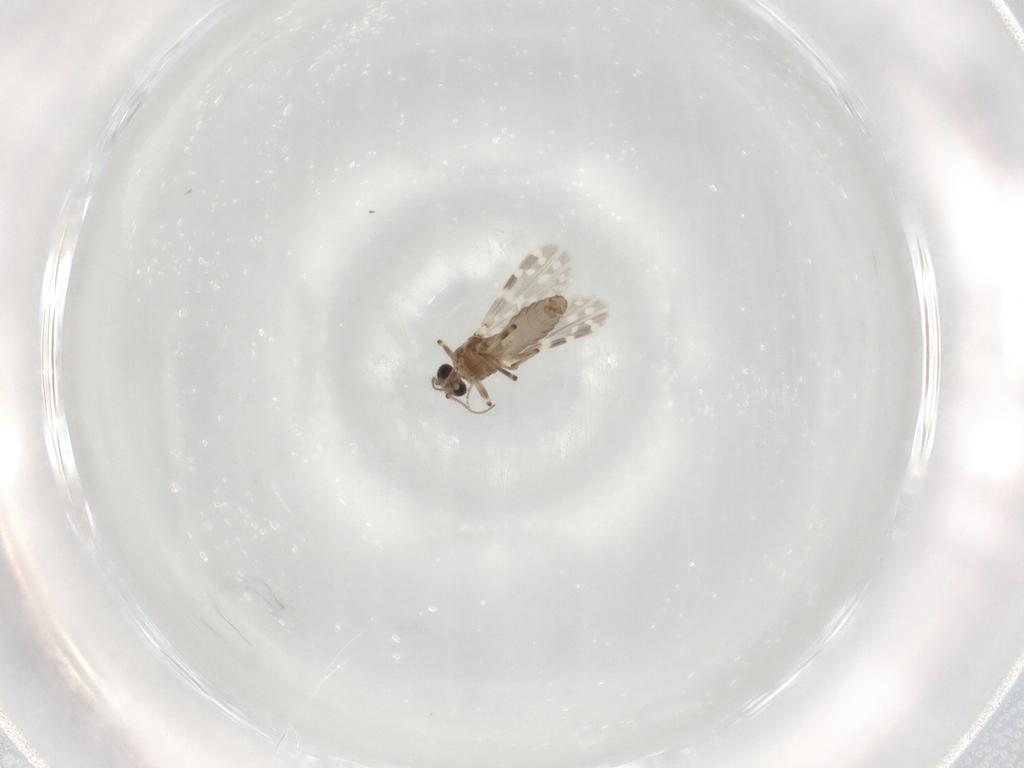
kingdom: Animalia
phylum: Arthropoda
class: Insecta
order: Diptera
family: Ceratopogonidae
